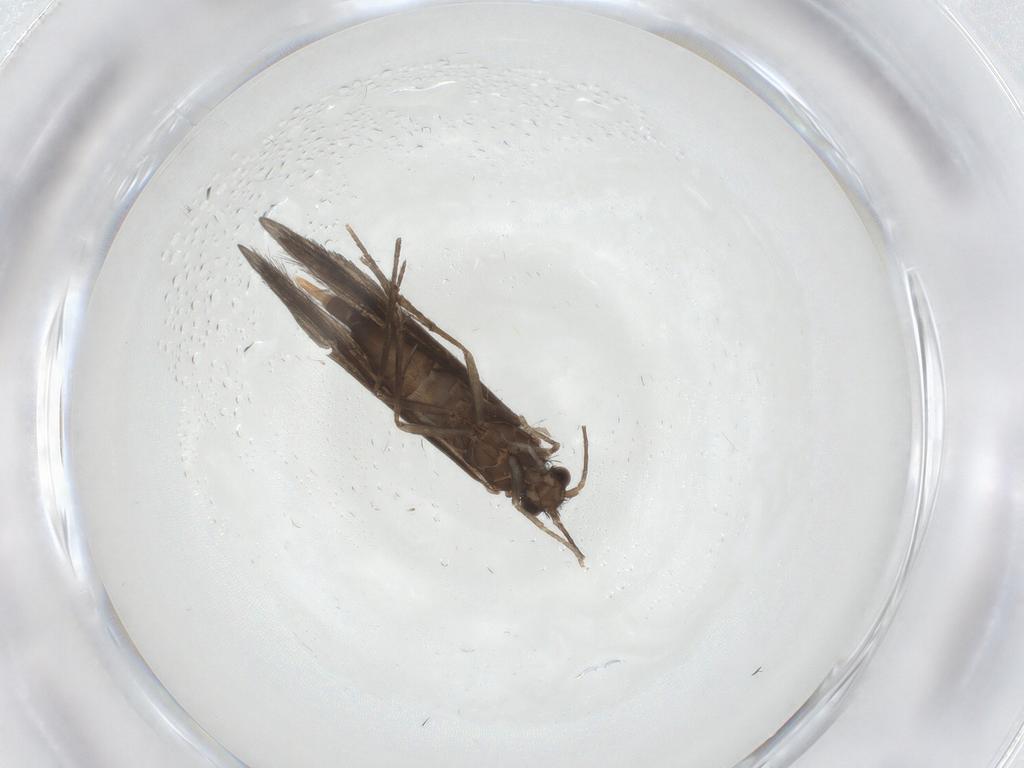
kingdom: Animalia
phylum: Arthropoda
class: Insecta
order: Trichoptera
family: Xiphocentronidae
